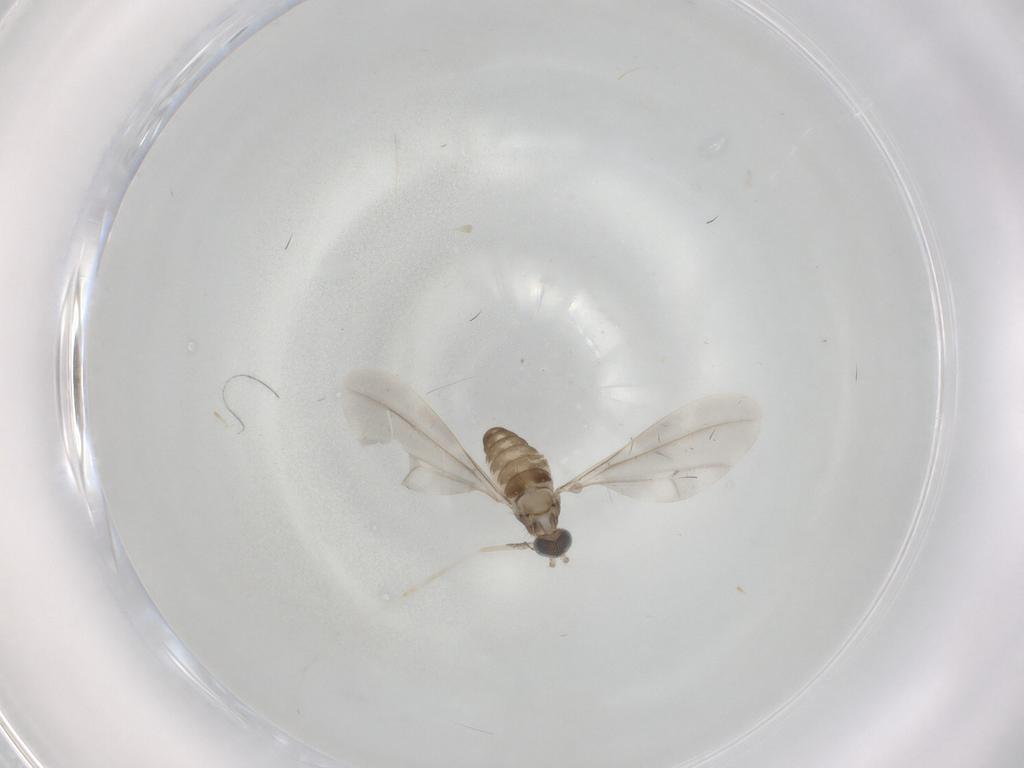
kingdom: Animalia
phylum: Arthropoda
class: Insecta
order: Diptera
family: Cecidomyiidae
